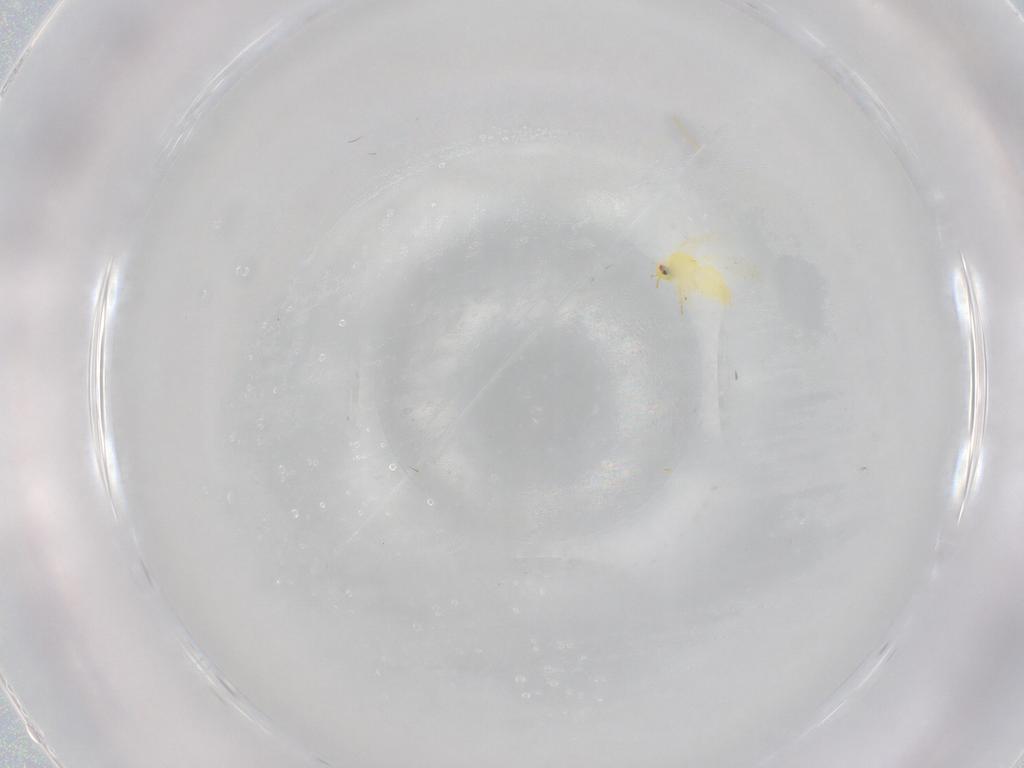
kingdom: Animalia
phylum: Arthropoda
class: Insecta
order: Hemiptera
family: Aleyrodidae
